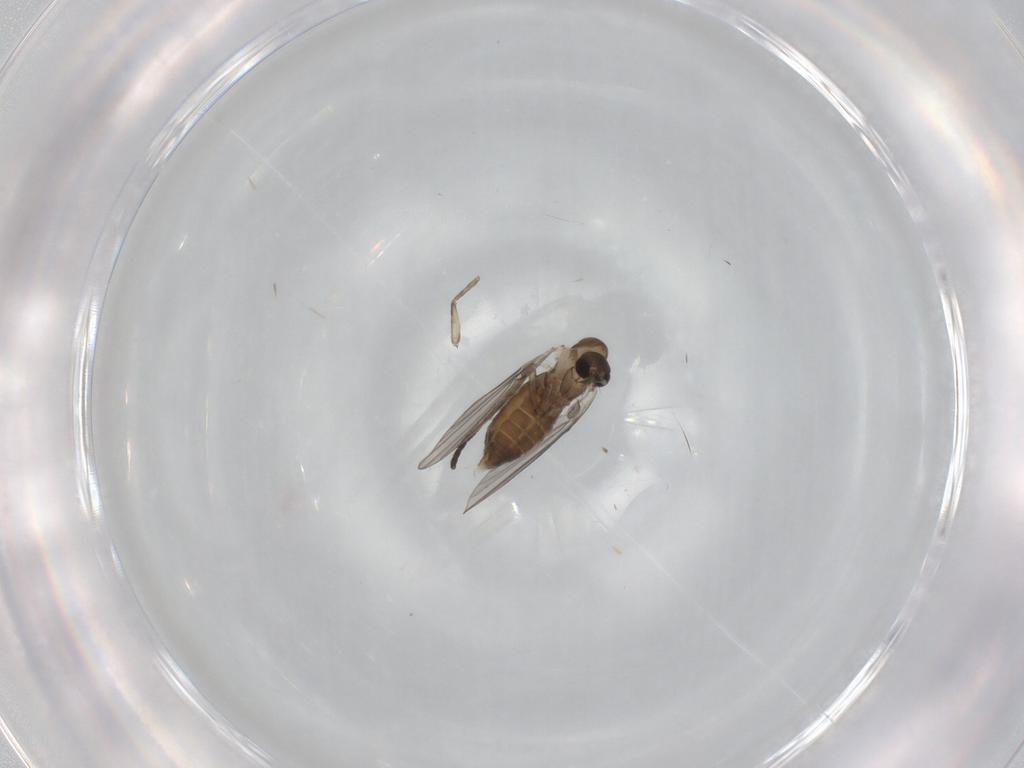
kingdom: Animalia
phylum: Arthropoda
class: Insecta
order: Diptera
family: Psychodidae
